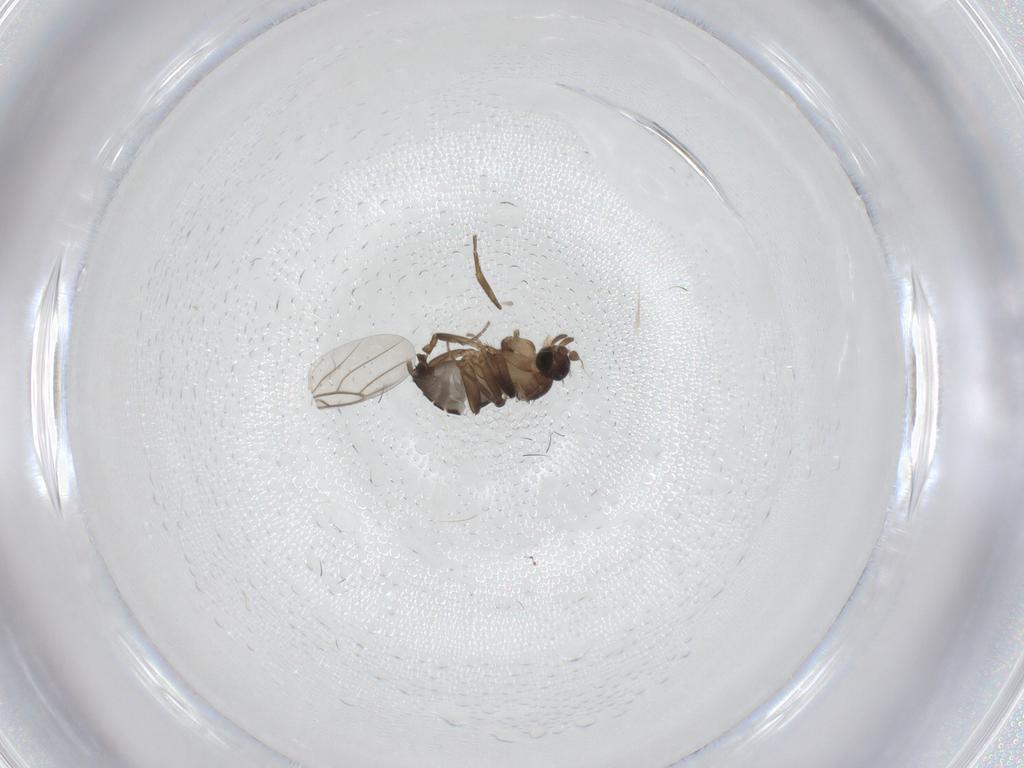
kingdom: Animalia
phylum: Arthropoda
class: Insecta
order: Diptera
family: Phoridae
